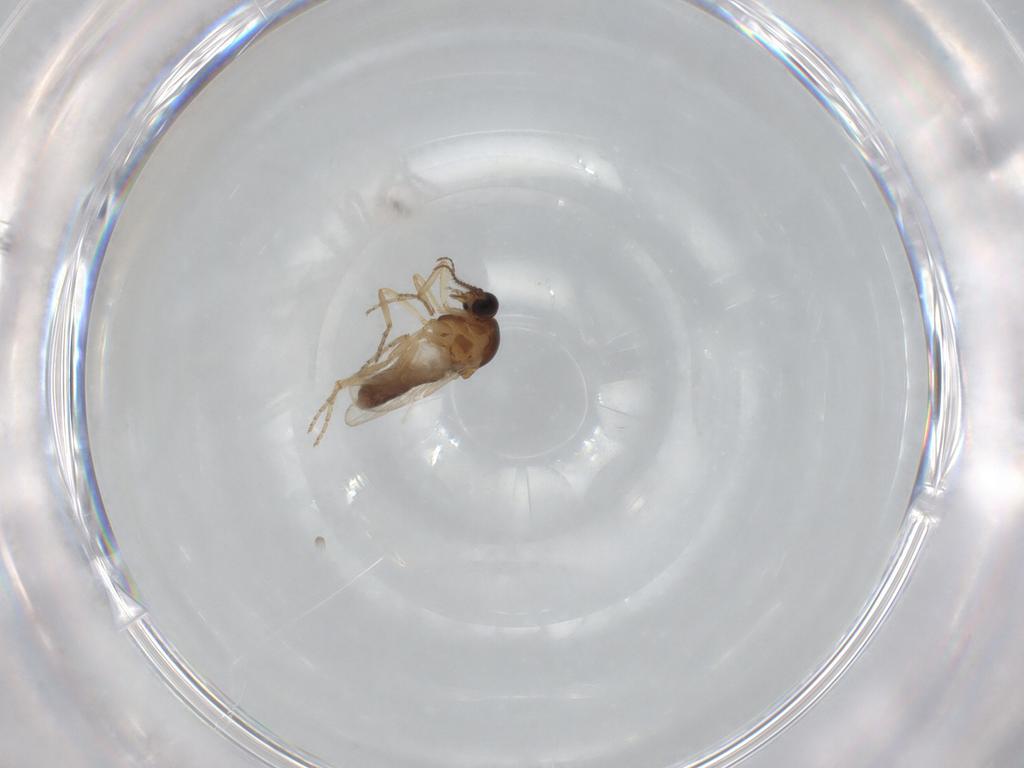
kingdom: Animalia
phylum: Arthropoda
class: Insecta
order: Diptera
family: Ceratopogonidae
